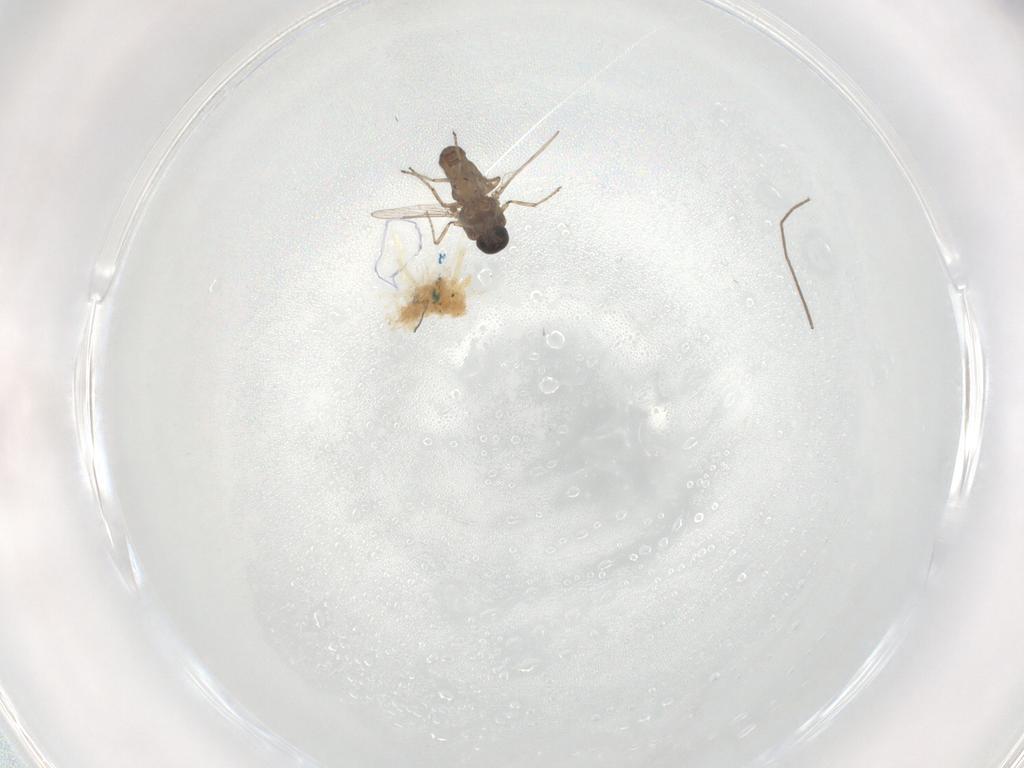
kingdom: Animalia
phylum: Arthropoda
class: Insecta
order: Diptera
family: Ceratopogonidae
